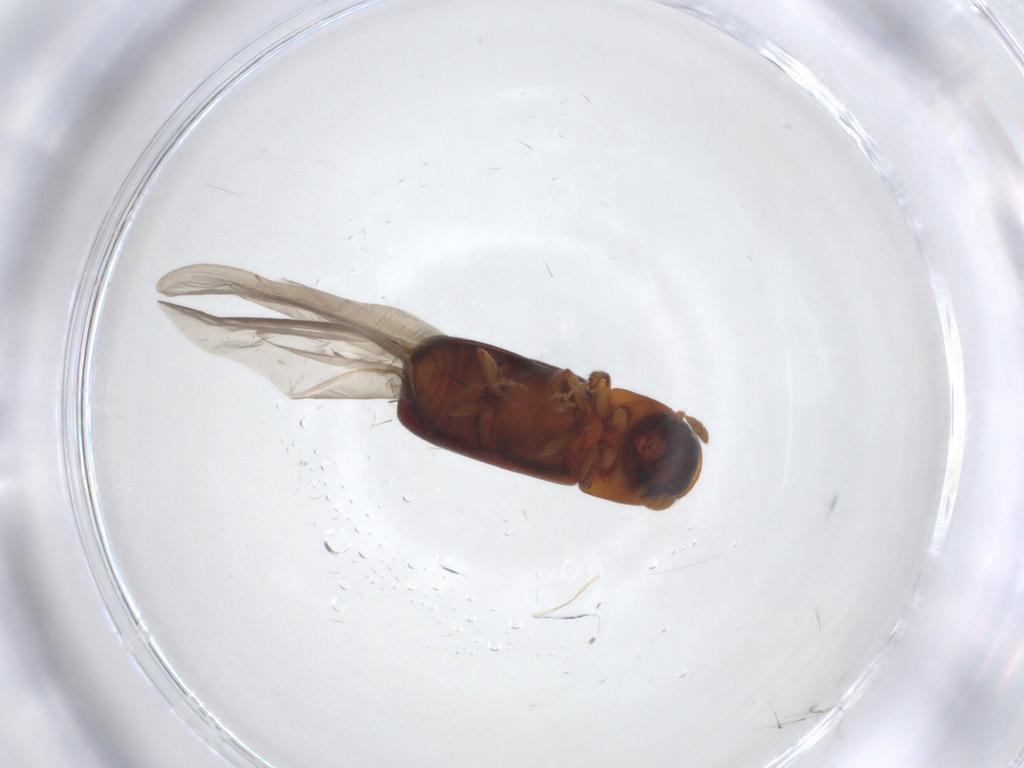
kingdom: Animalia
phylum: Arthropoda
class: Insecta
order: Coleoptera
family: Curculionidae
